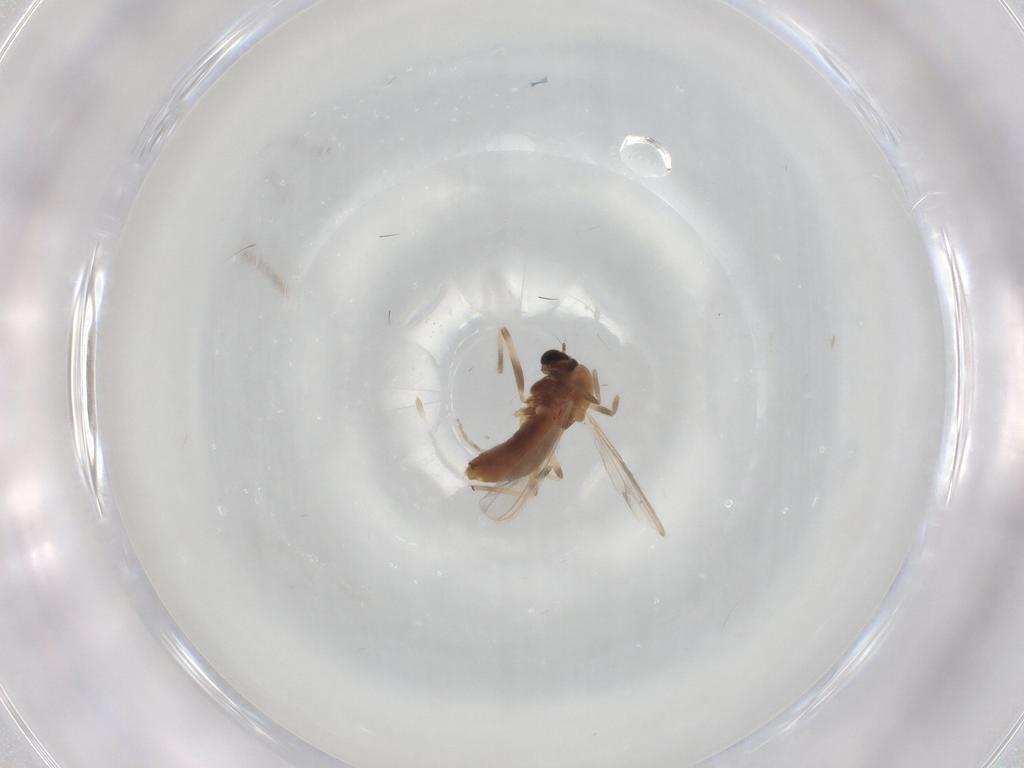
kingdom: Animalia
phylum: Arthropoda
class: Insecta
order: Diptera
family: Chironomidae
